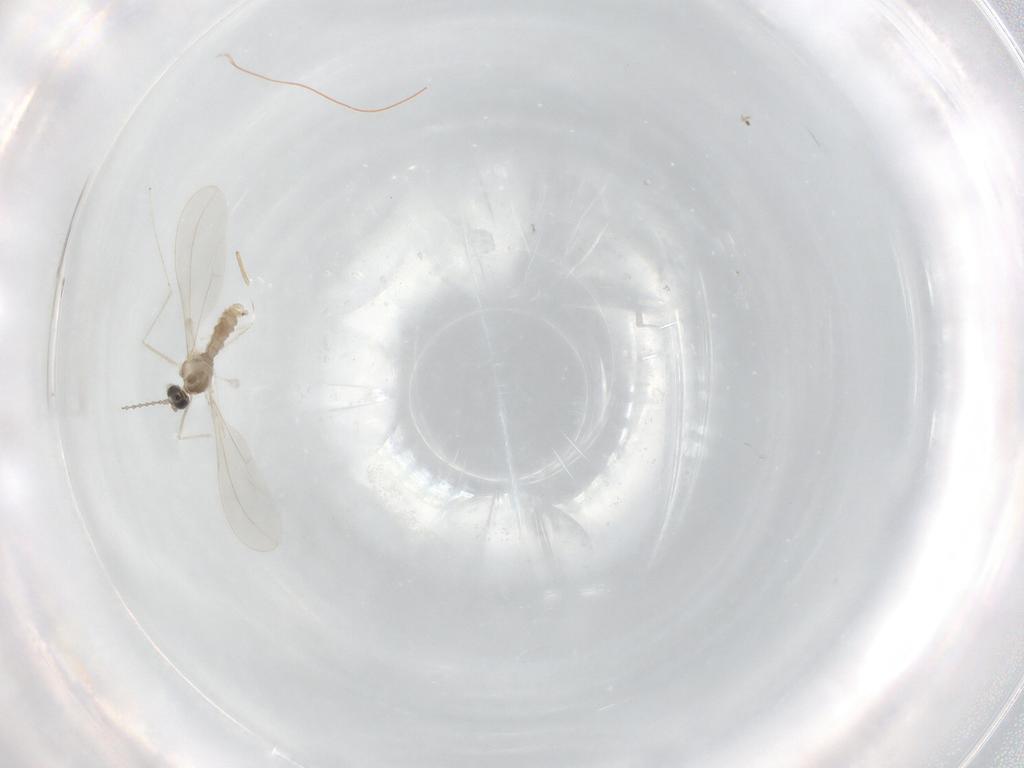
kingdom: Animalia
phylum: Arthropoda
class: Insecta
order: Diptera
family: Cecidomyiidae
